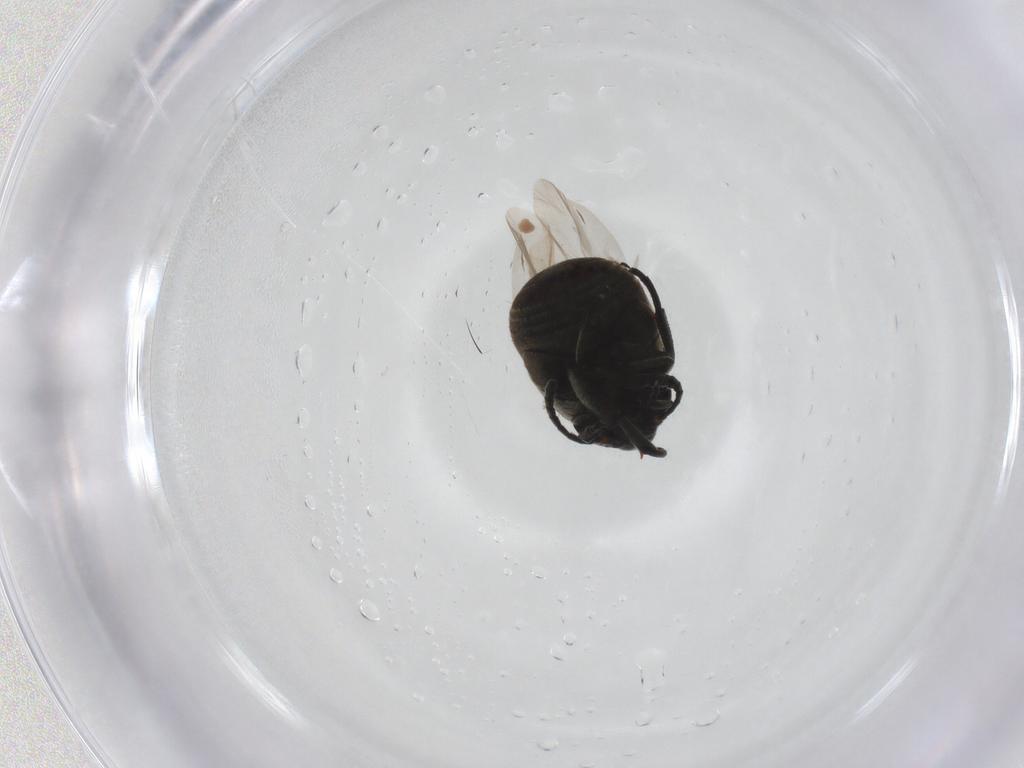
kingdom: Animalia
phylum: Arthropoda
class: Insecta
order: Coleoptera
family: Chrysomelidae
